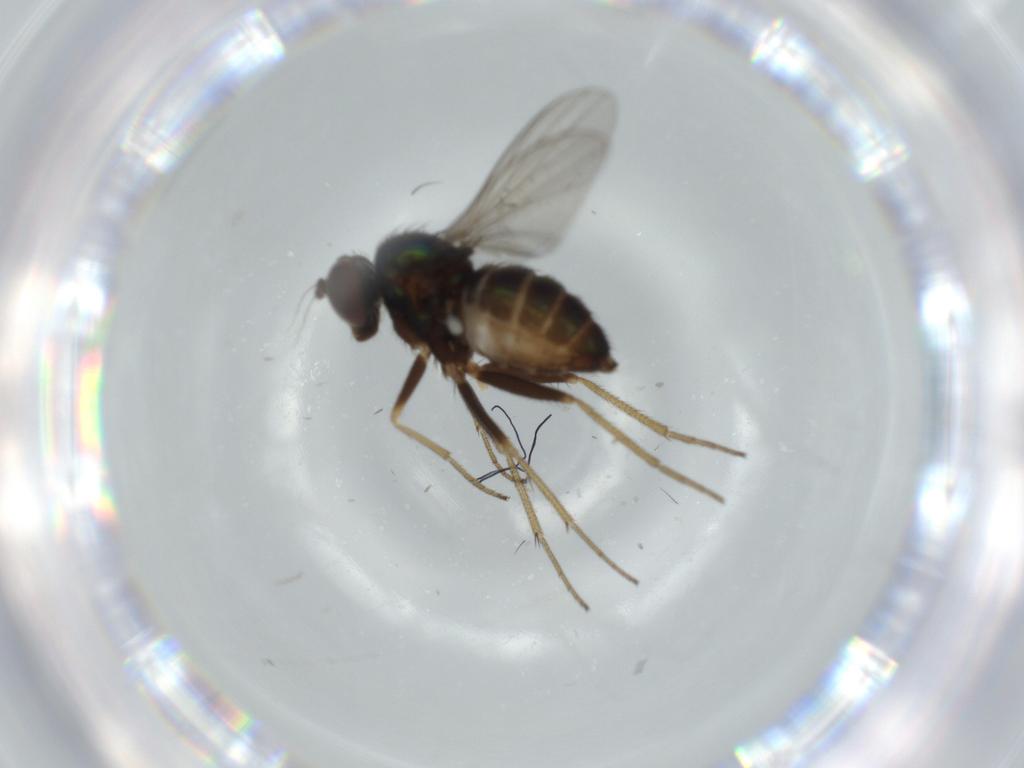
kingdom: Animalia
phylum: Arthropoda
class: Insecta
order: Diptera
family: Dolichopodidae
